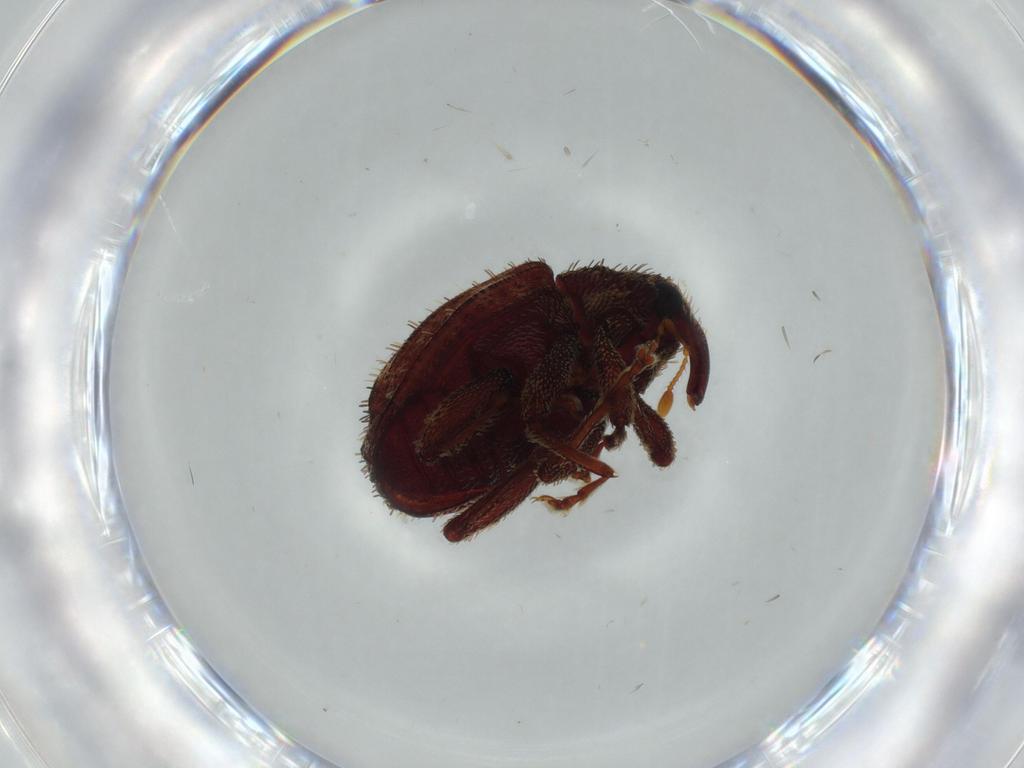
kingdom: Animalia
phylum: Arthropoda
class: Insecta
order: Coleoptera
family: Curculionidae
